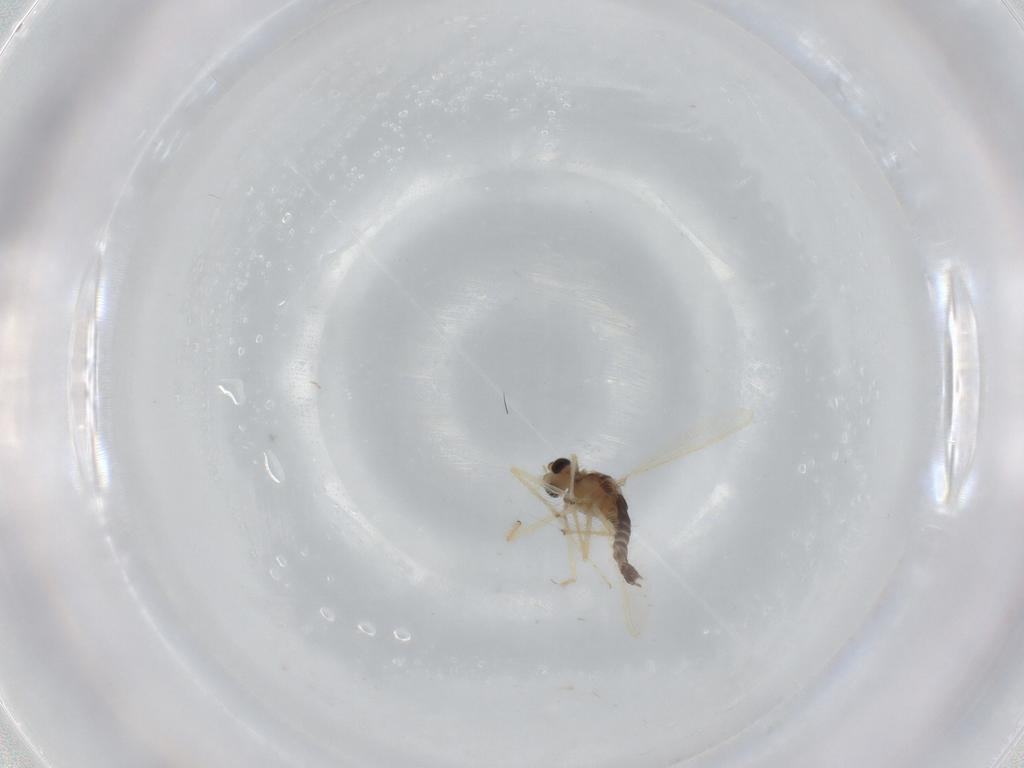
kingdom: Animalia
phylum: Arthropoda
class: Insecta
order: Diptera
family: Chironomidae
